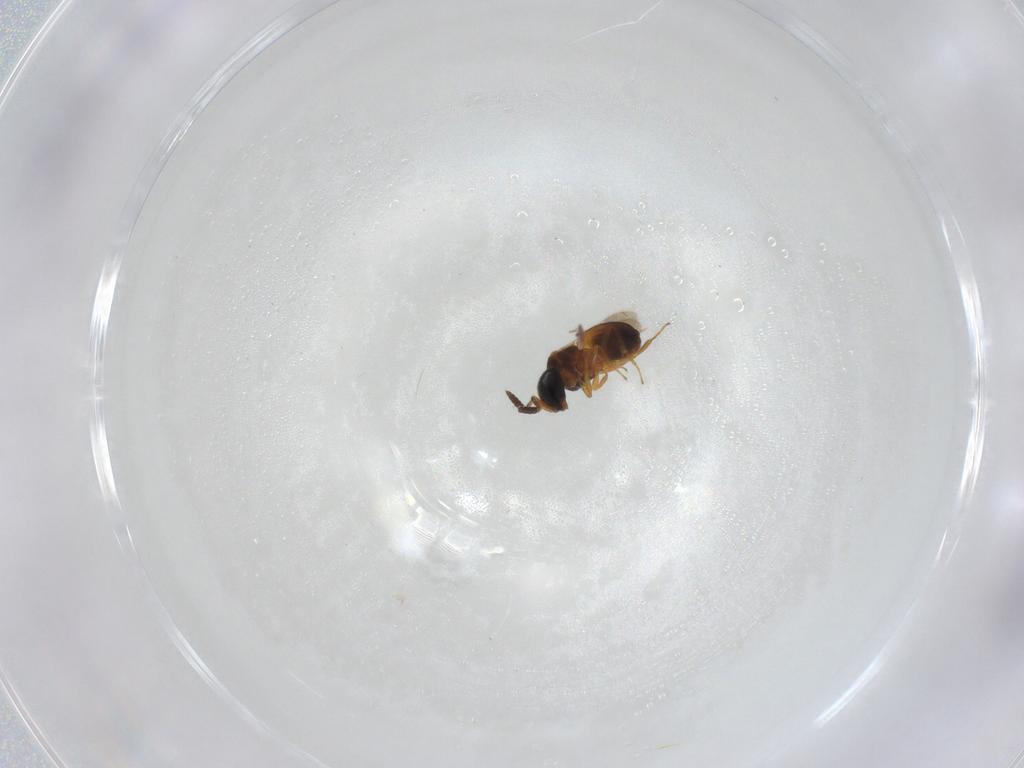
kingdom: Animalia
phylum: Arthropoda
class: Insecta
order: Hymenoptera
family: Scelionidae
